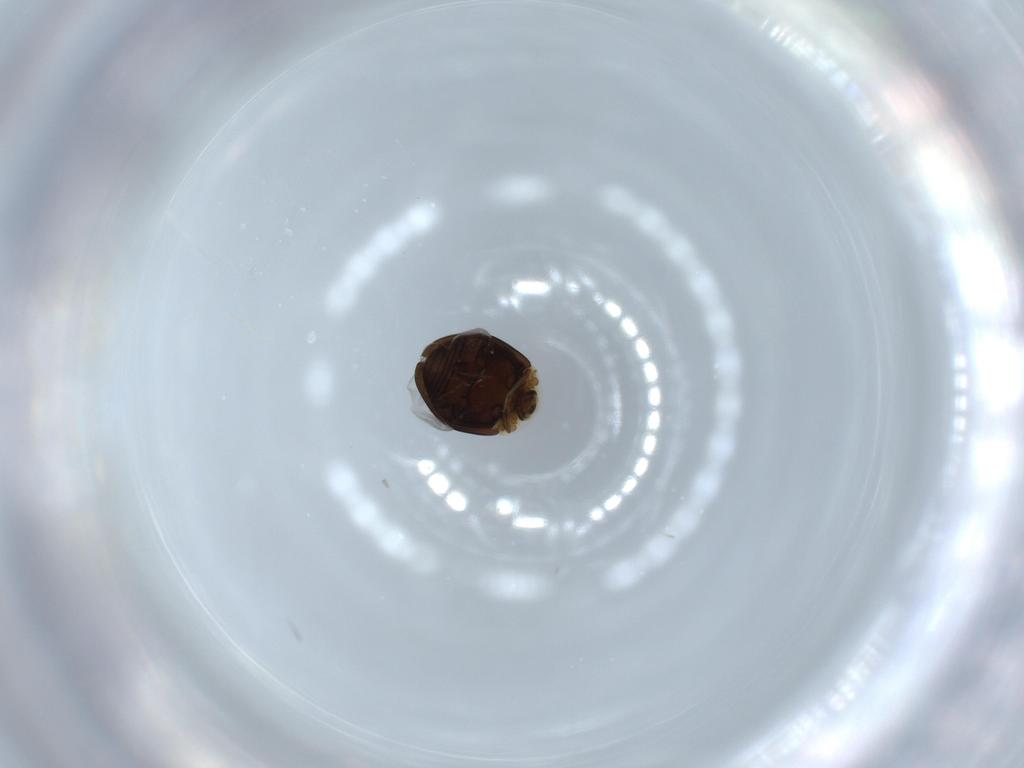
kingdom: Animalia
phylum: Arthropoda
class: Insecta
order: Coleoptera
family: Corylophidae
